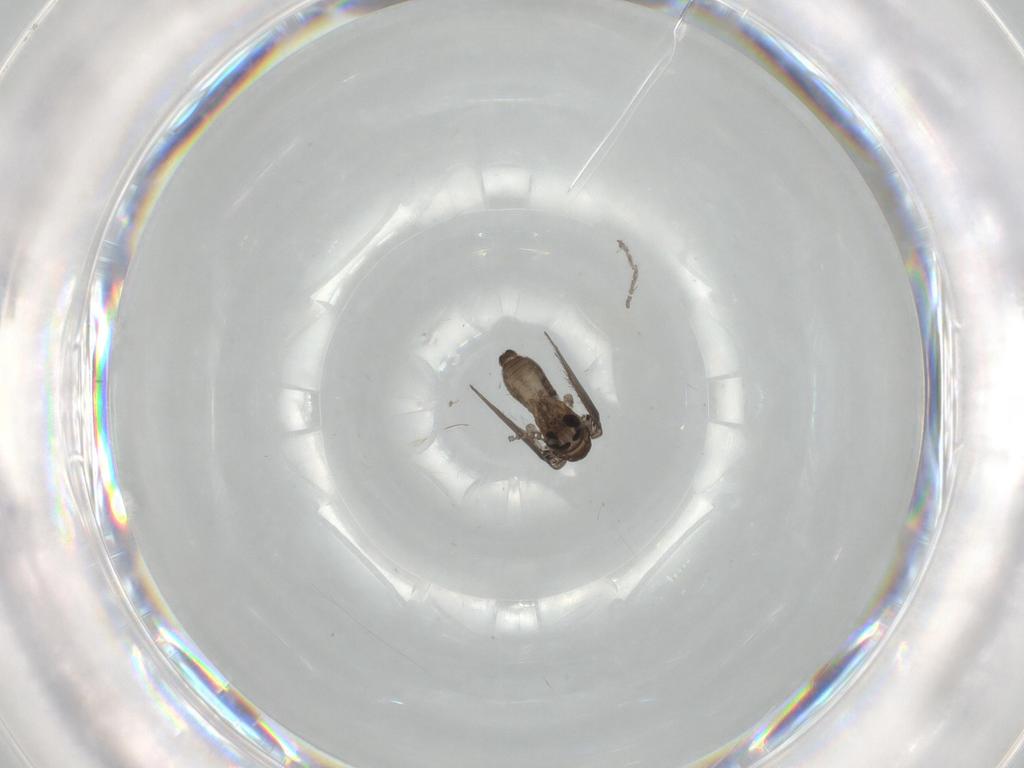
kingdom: Animalia
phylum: Arthropoda
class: Insecta
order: Diptera
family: Psychodidae
